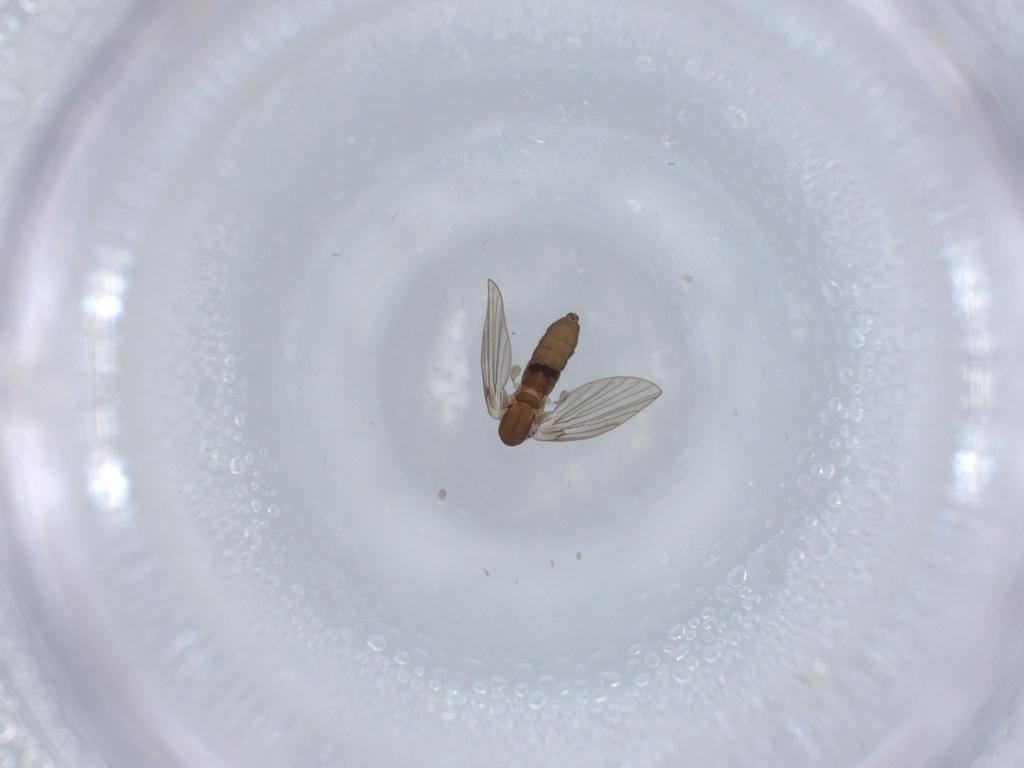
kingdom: Animalia
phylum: Arthropoda
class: Insecta
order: Diptera
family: Psychodidae
